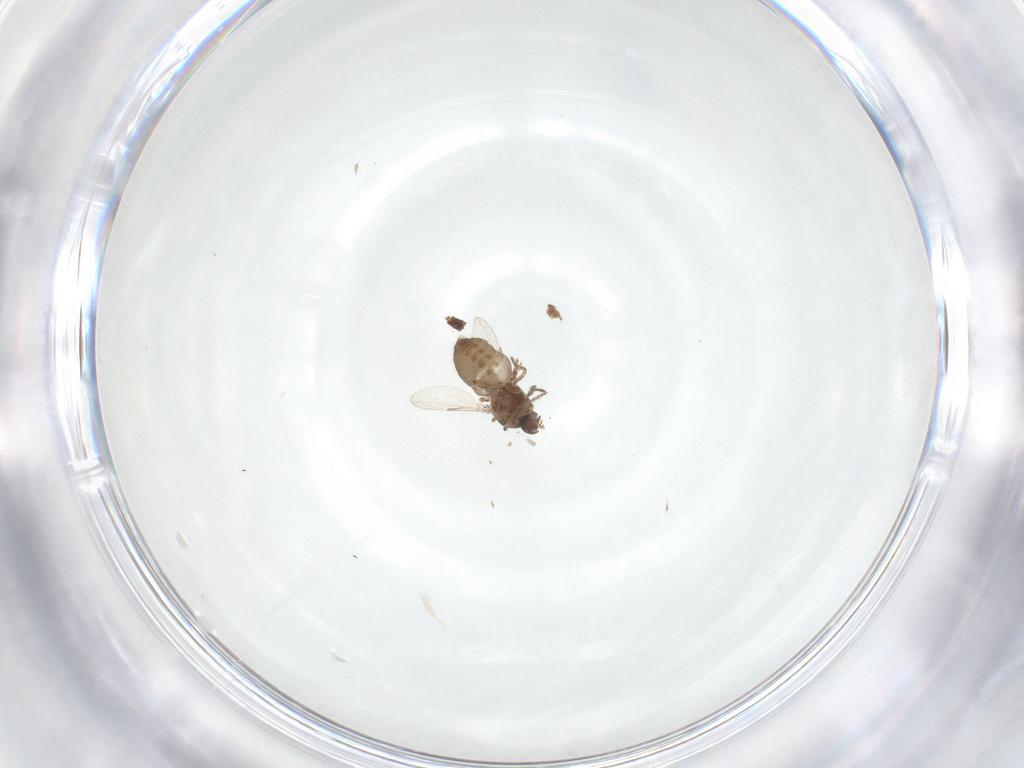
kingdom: Animalia
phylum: Arthropoda
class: Insecta
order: Diptera
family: Ceratopogonidae
